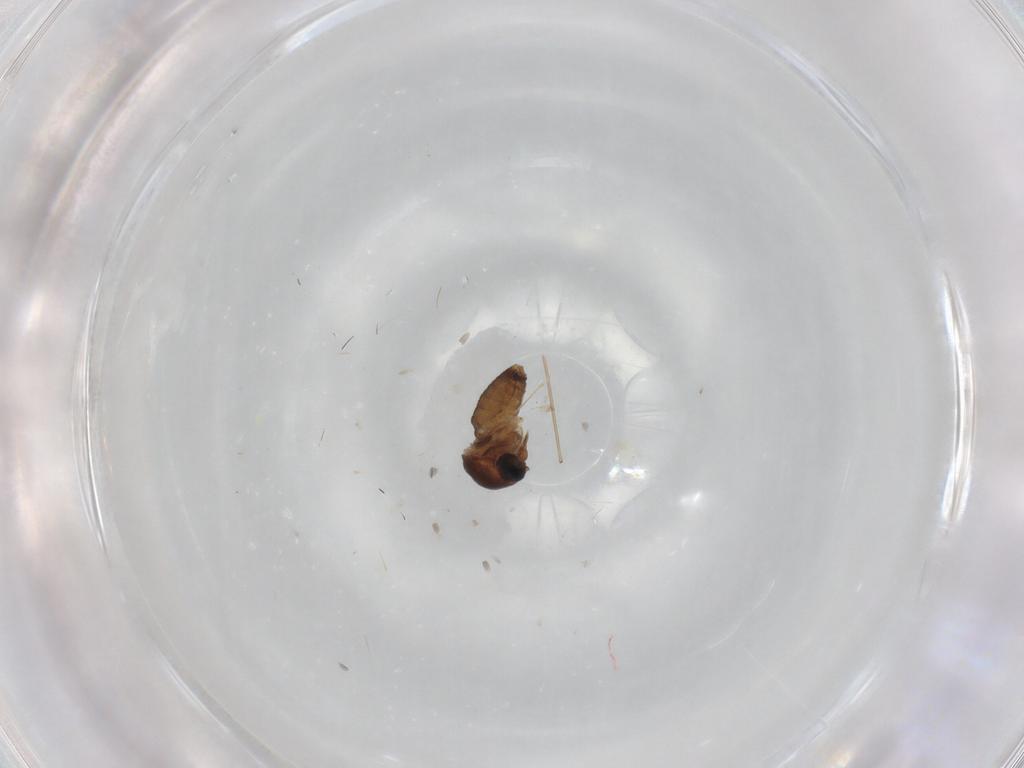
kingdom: Animalia
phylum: Arthropoda
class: Insecta
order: Diptera
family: Ceratopogonidae
